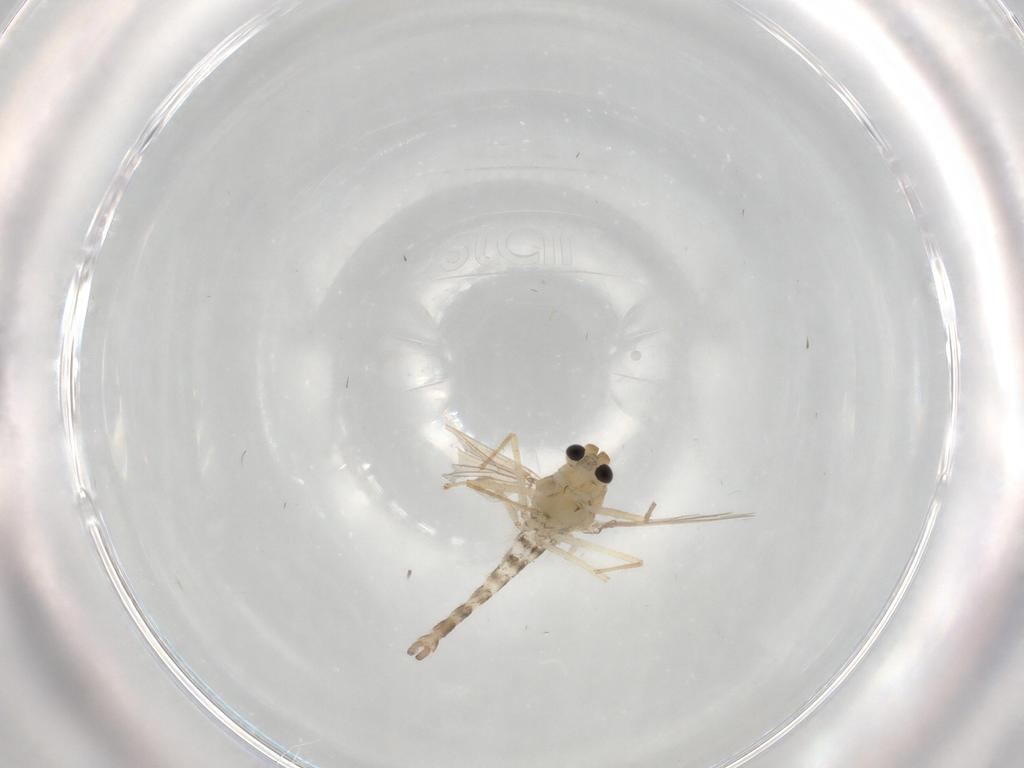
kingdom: Animalia
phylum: Arthropoda
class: Insecta
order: Diptera
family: Chironomidae
